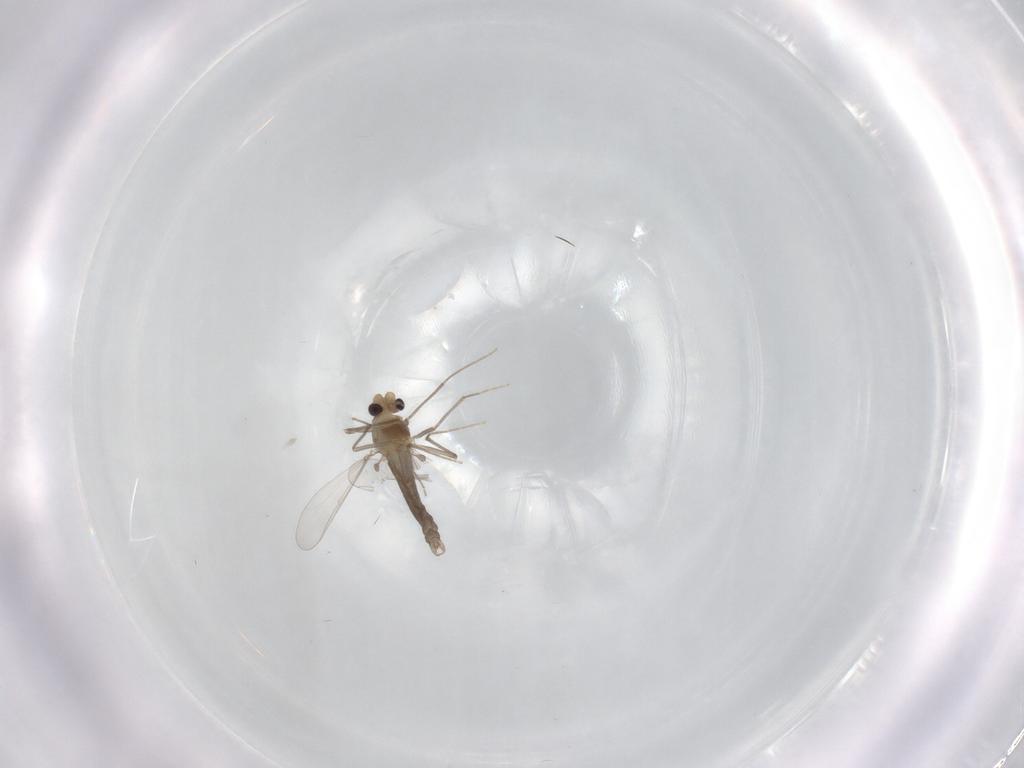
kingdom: Animalia
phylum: Arthropoda
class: Insecta
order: Diptera
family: Chironomidae
